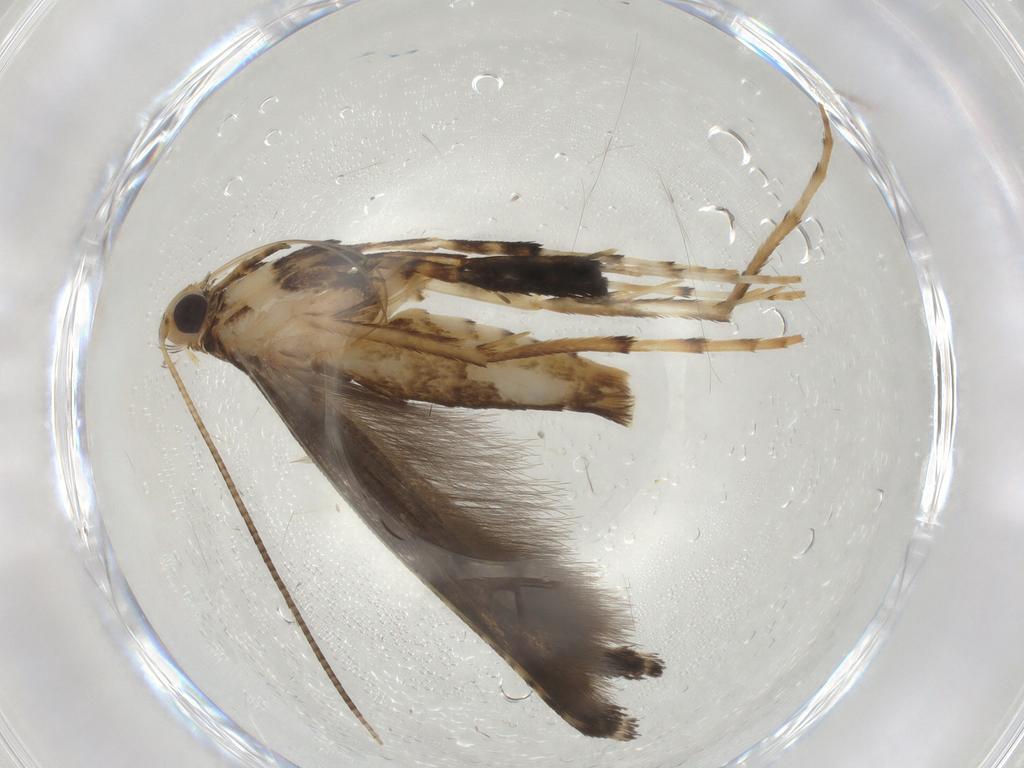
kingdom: Animalia
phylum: Arthropoda
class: Insecta
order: Lepidoptera
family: Gracillariidae
